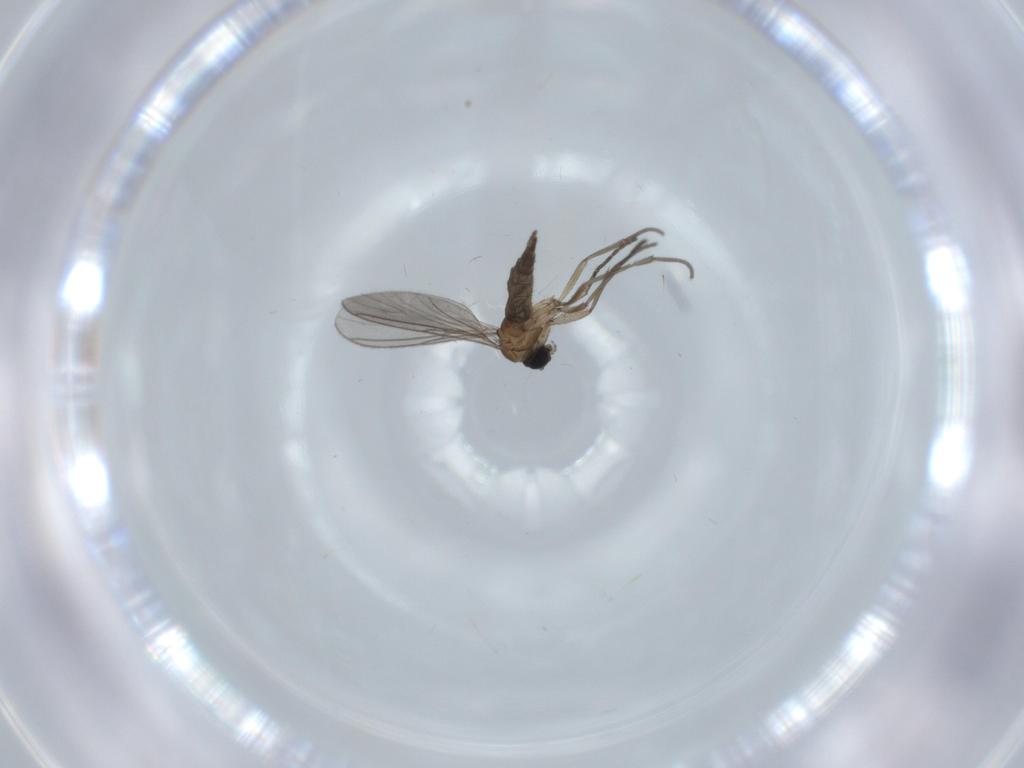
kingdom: Animalia
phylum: Arthropoda
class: Insecta
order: Diptera
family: Sciaridae
